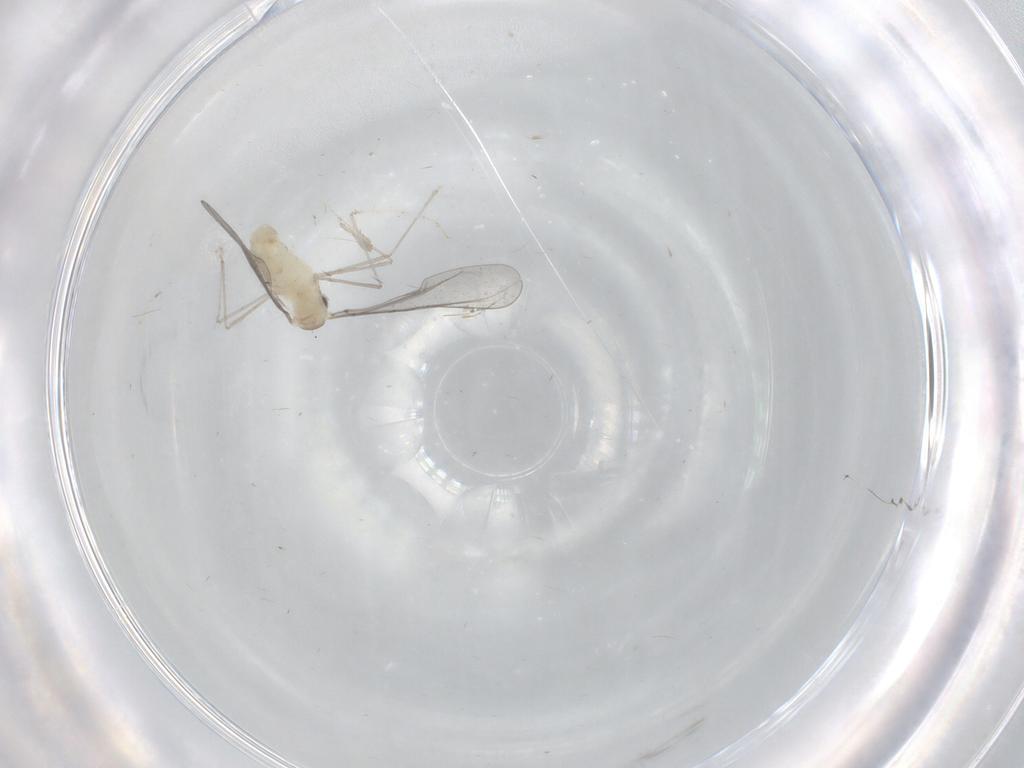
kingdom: Animalia
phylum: Arthropoda
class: Insecta
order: Diptera
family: Cecidomyiidae
